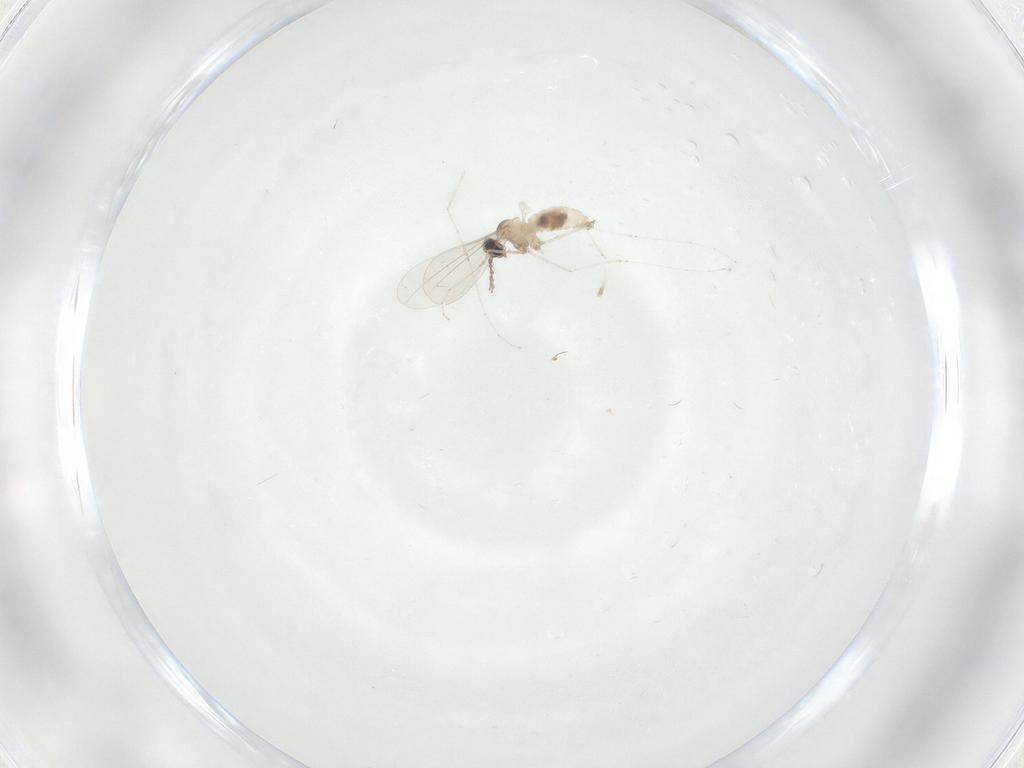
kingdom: Animalia
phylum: Arthropoda
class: Insecta
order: Diptera
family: Cecidomyiidae
